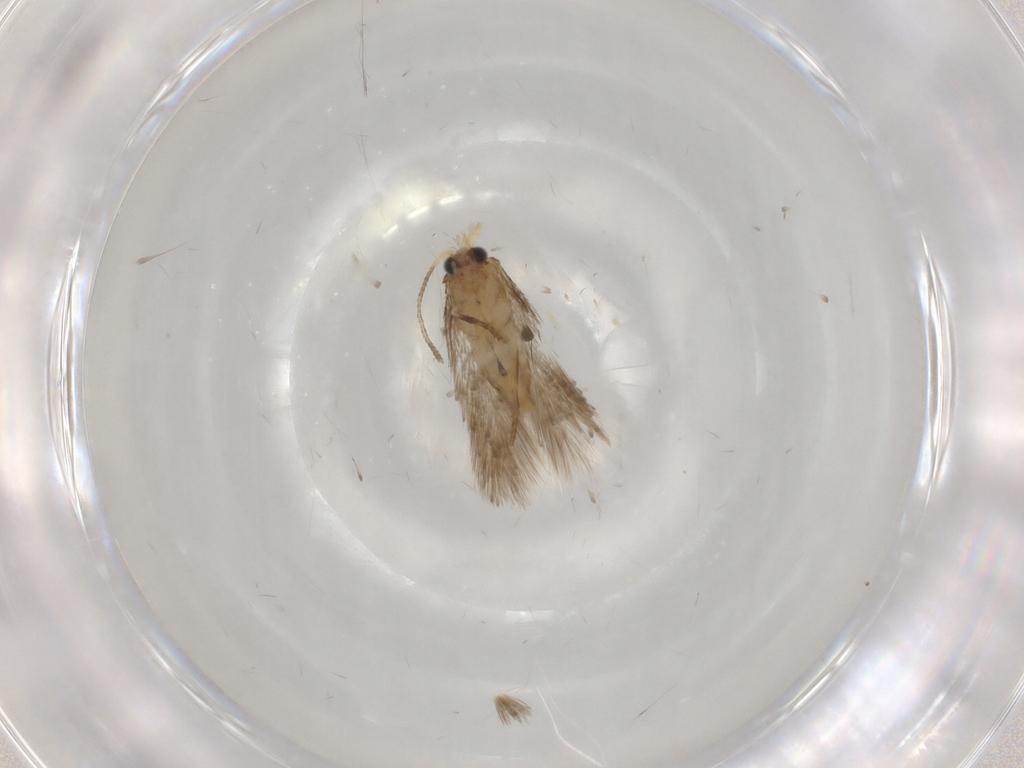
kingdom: Animalia
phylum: Arthropoda
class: Insecta
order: Lepidoptera
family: Nepticulidae
